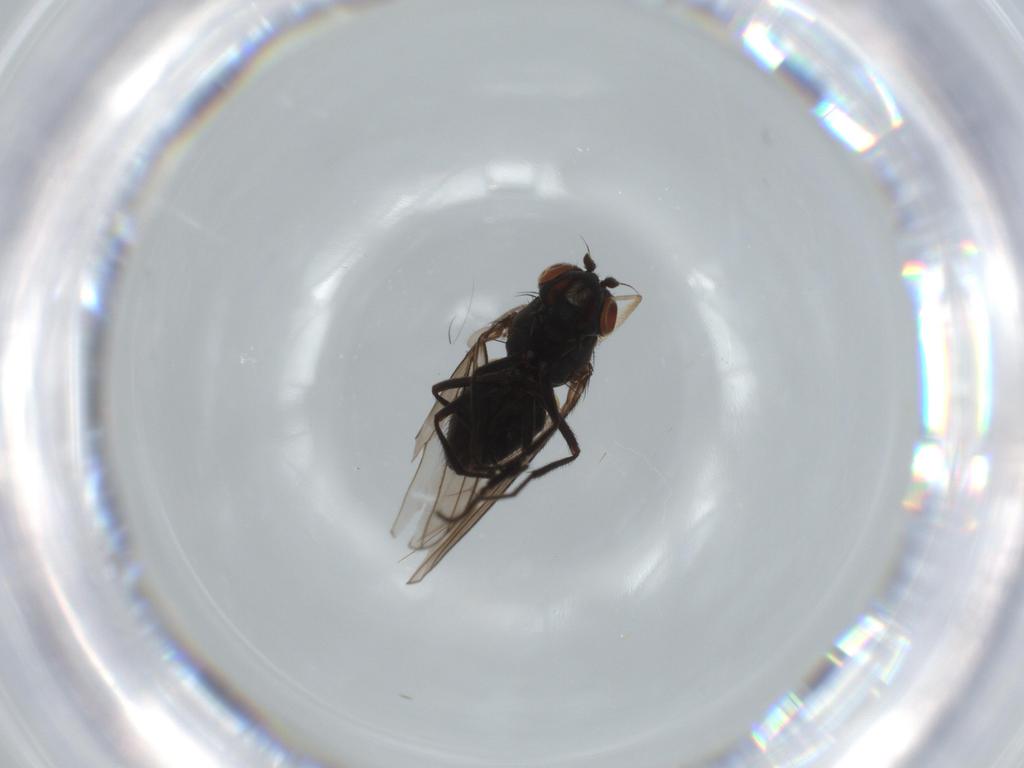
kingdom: Animalia
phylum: Arthropoda
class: Insecta
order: Diptera
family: Ephydridae
